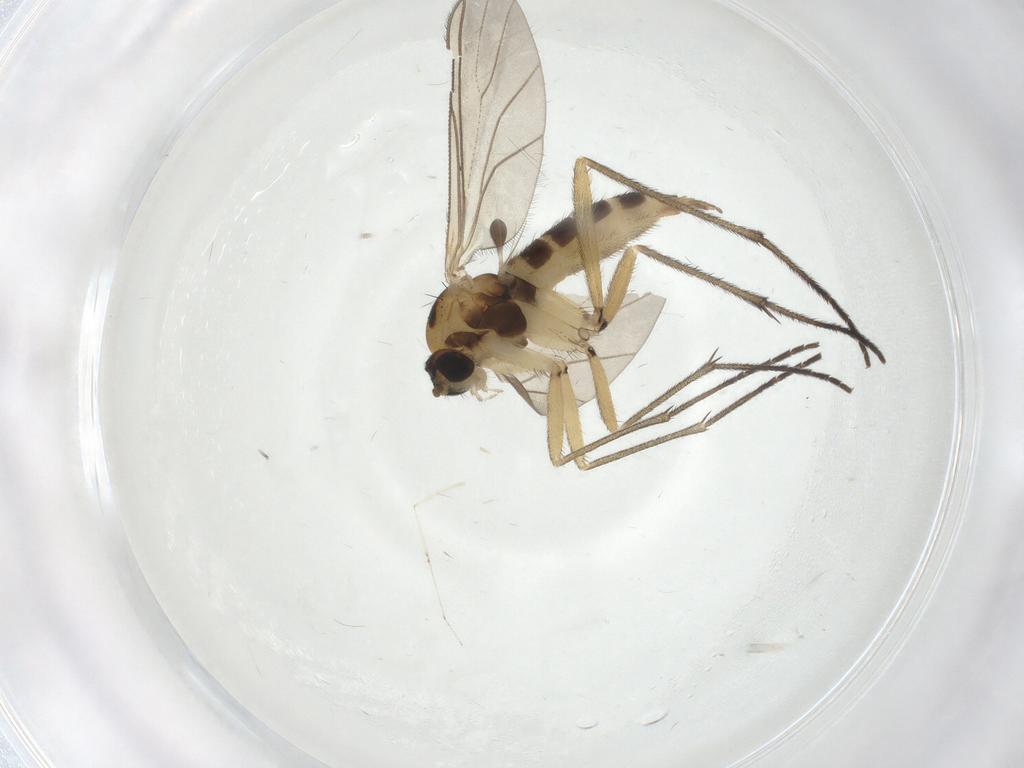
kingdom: Animalia
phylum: Arthropoda
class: Insecta
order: Diptera
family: Sciaridae
